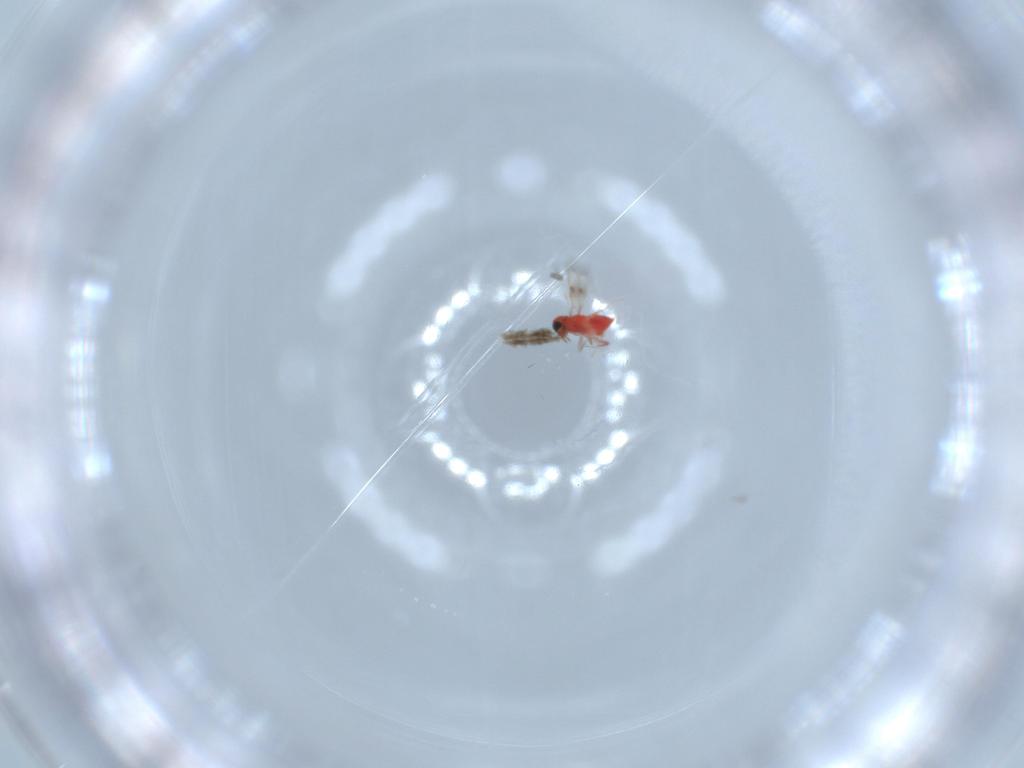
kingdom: Animalia
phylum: Arthropoda
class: Insecta
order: Hymenoptera
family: Trichogrammatidae
